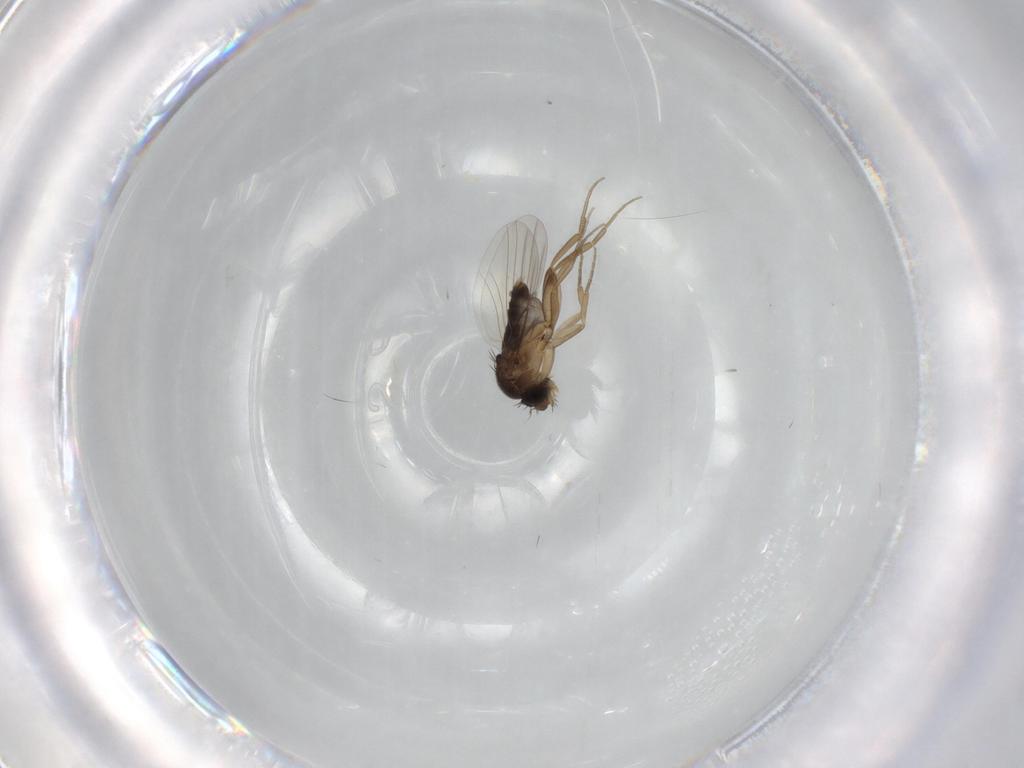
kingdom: Animalia
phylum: Arthropoda
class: Insecta
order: Diptera
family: Phoridae
